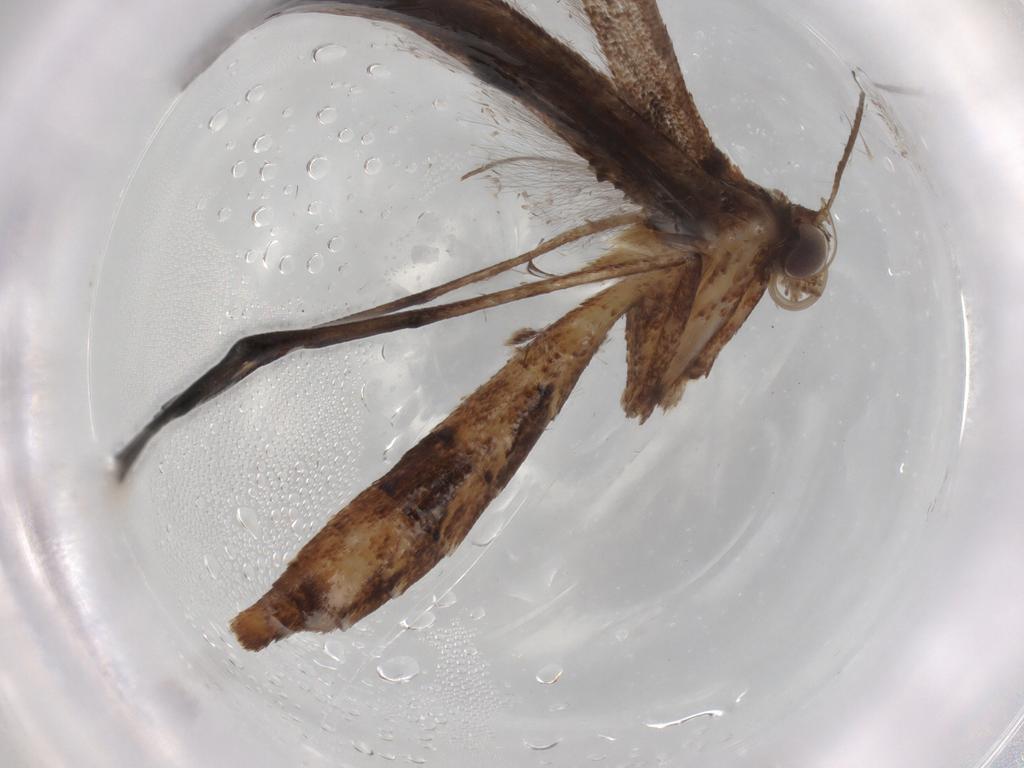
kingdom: Animalia
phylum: Arthropoda
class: Insecta
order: Lepidoptera
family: Pterophoridae
